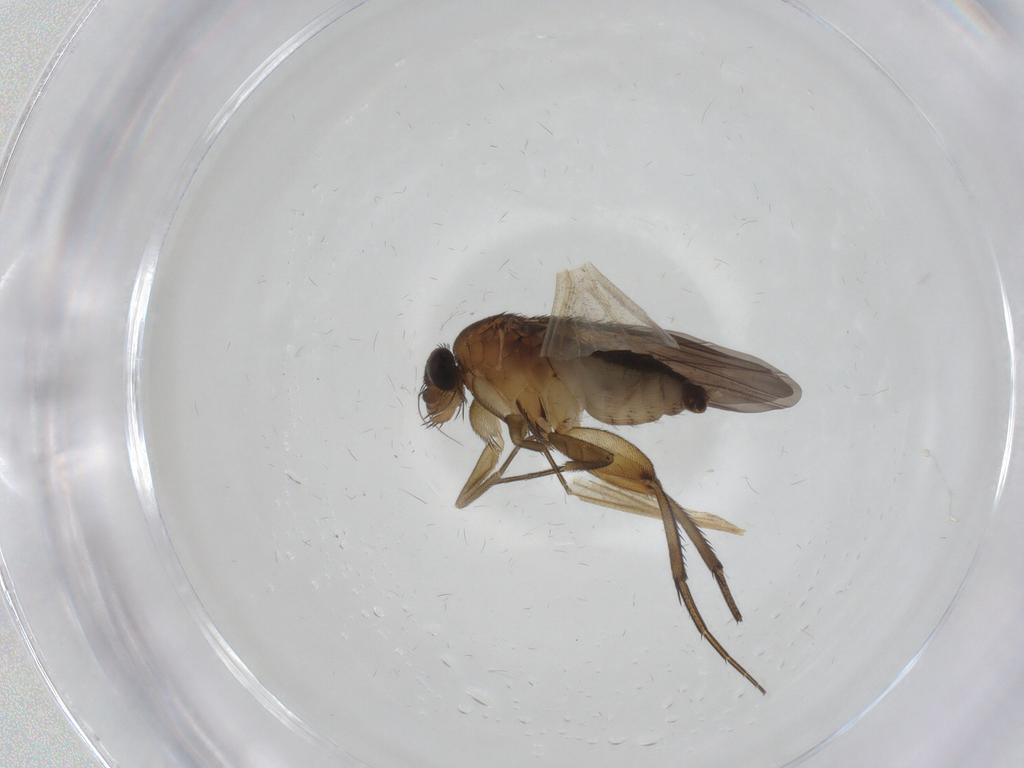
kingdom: Animalia
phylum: Arthropoda
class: Insecta
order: Diptera
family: Phoridae
